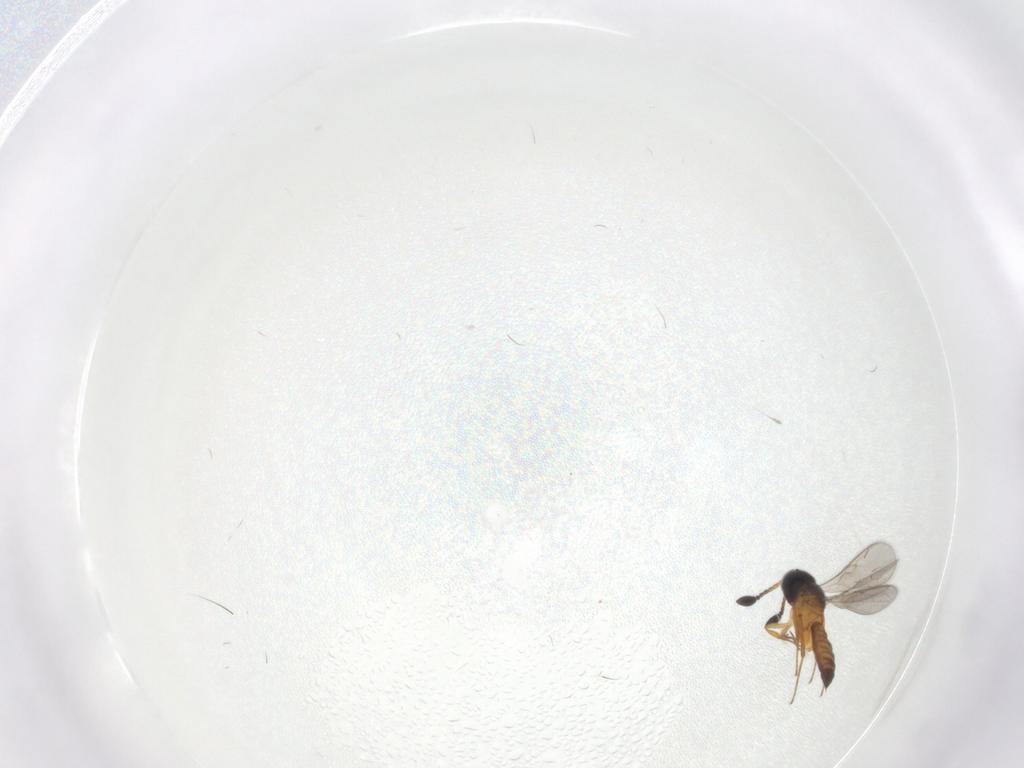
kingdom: Animalia
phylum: Arthropoda
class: Insecta
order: Hymenoptera
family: Scelionidae
